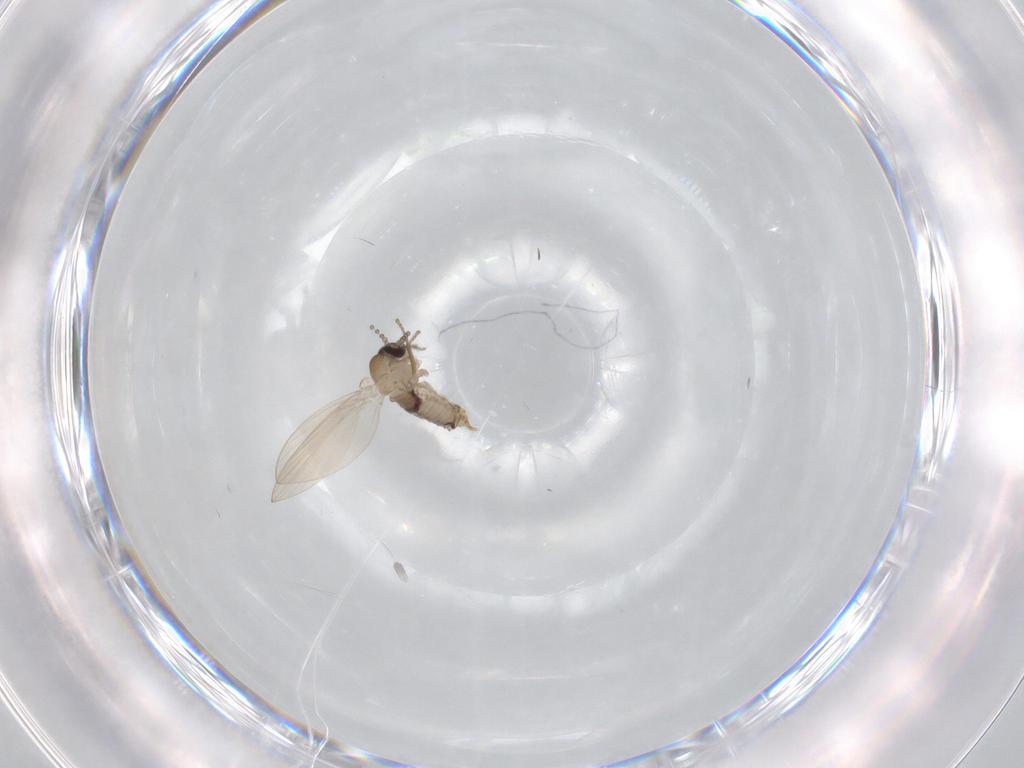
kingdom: Animalia
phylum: Arthropoda
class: Insecta
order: Diptera
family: Psychodidae
